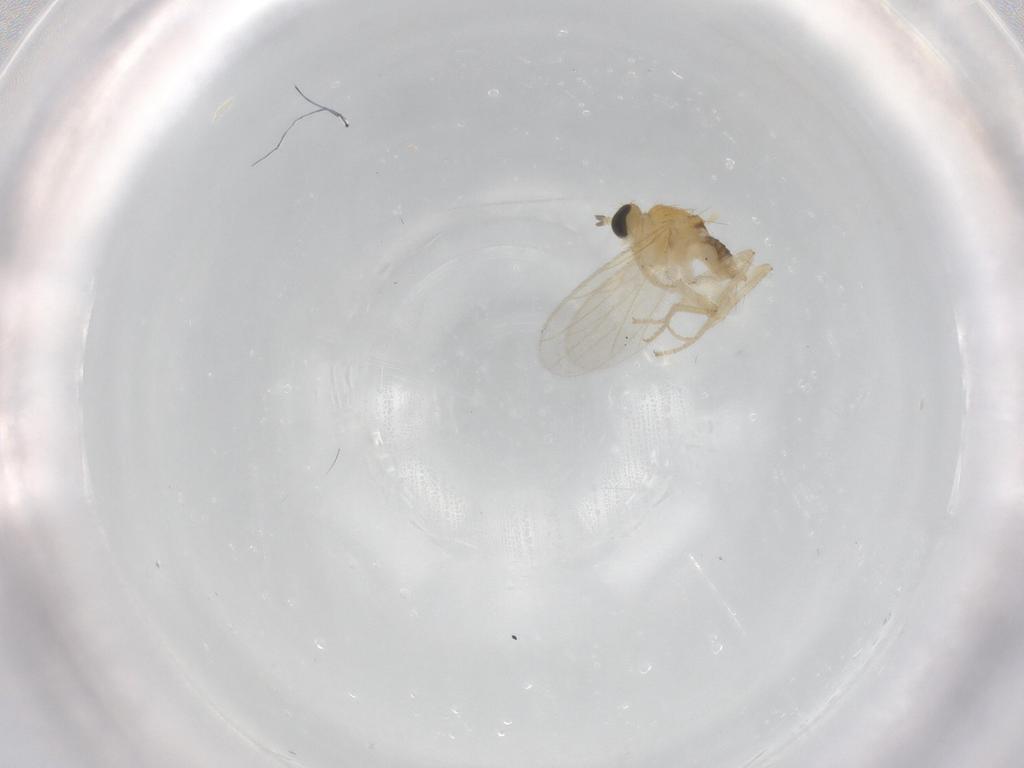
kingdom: Animalia
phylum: Arthropoda
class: Insecta
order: Diptera
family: Hybotidae
